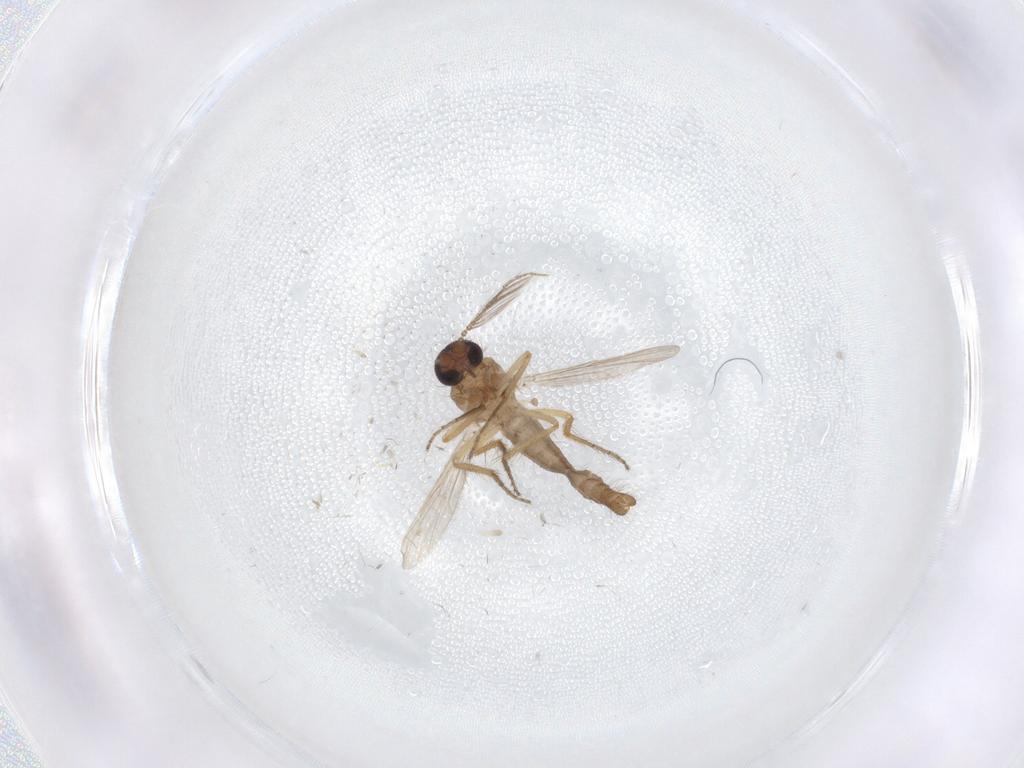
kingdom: Animalia
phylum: Arthropoda
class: Insecta
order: Diptera
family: Ceratopogonidae
